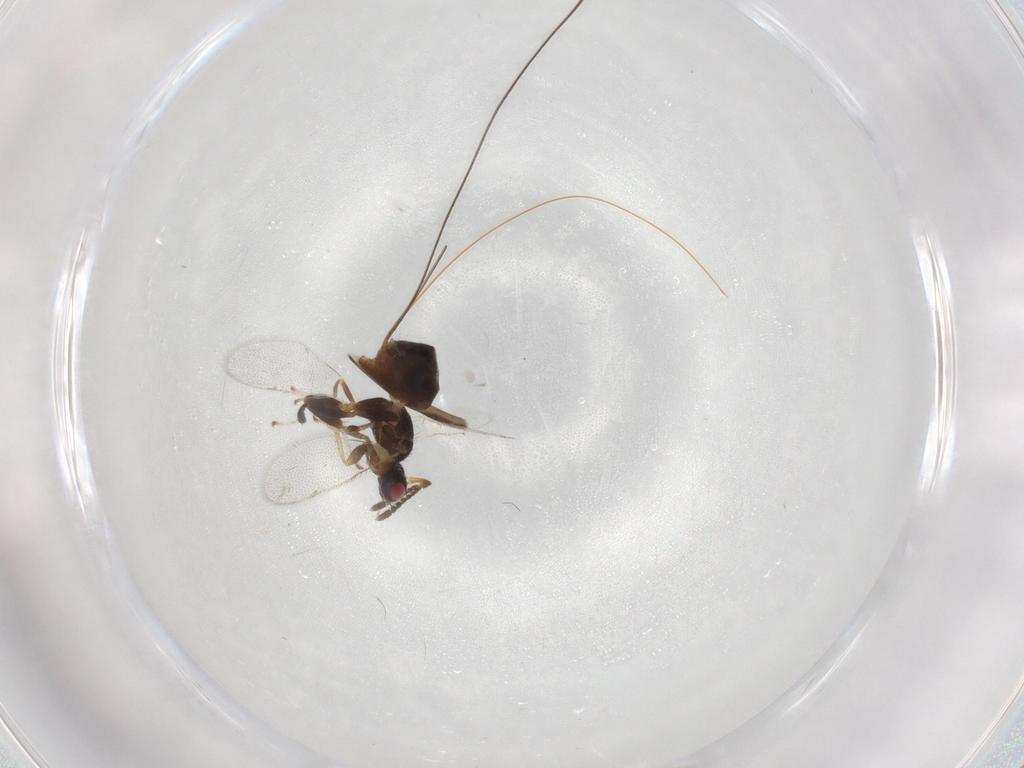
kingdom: Animalia
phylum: Arthropoda
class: Insecta
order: Hymenoptera
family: Torymidae
